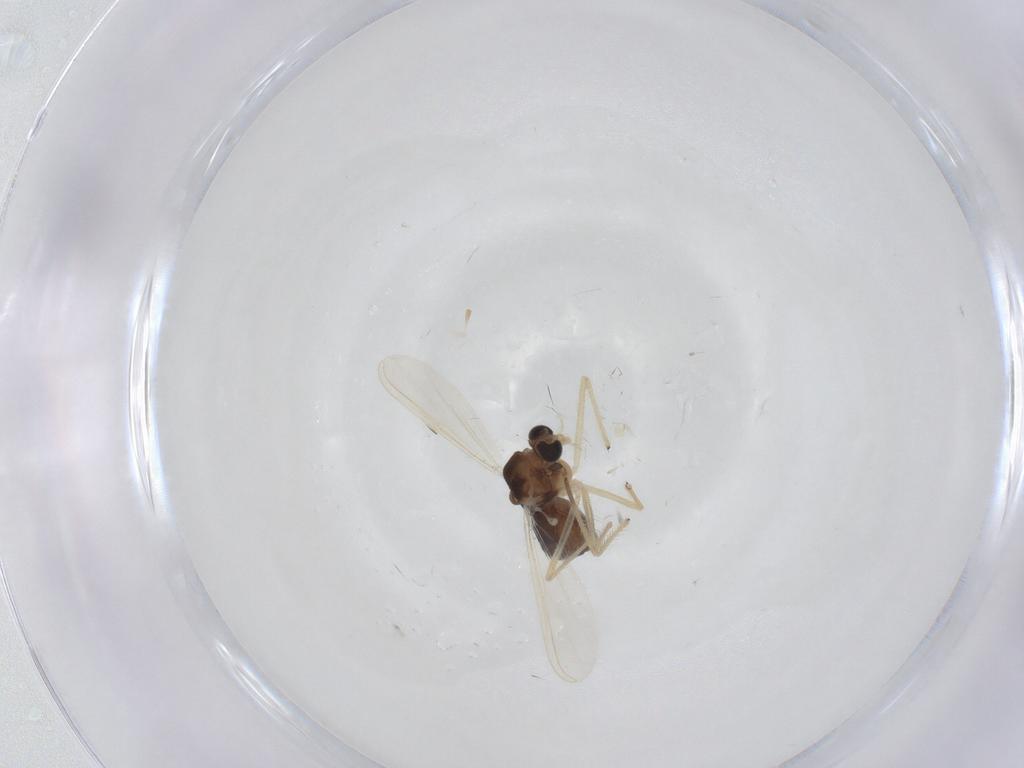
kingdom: Animalia
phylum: Arthropoda
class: Insecta
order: Diptera
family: Chironomidae
